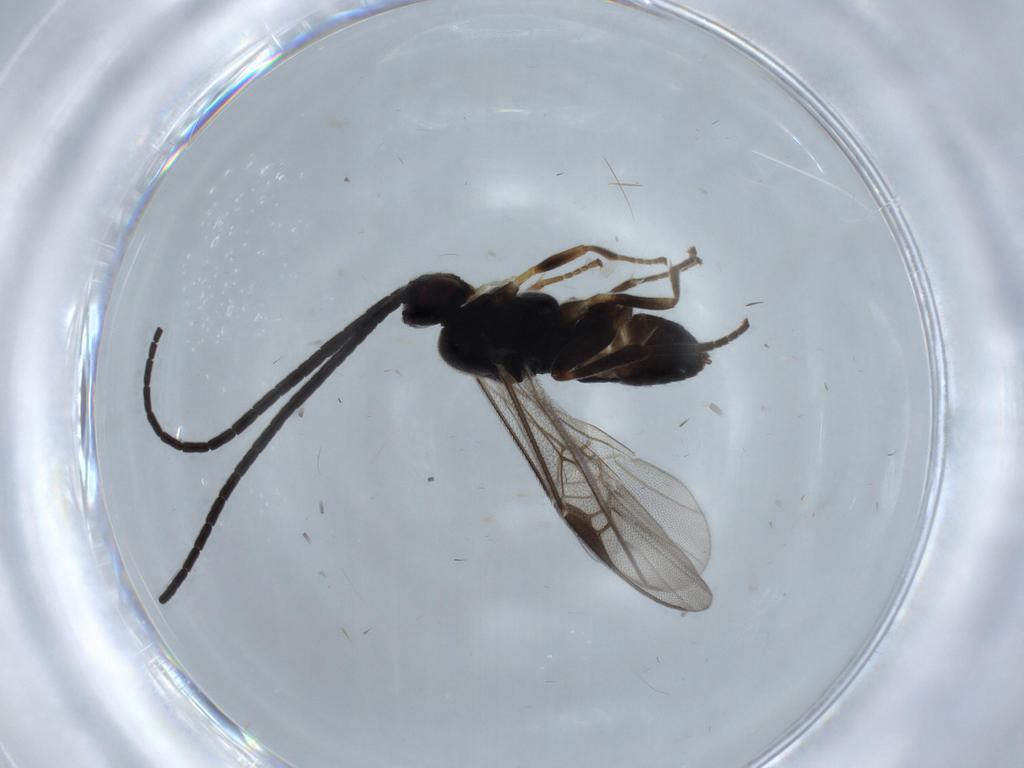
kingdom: Animalia
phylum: Arthropoda
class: Insecta
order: Hymenoptera
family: Braconidae
